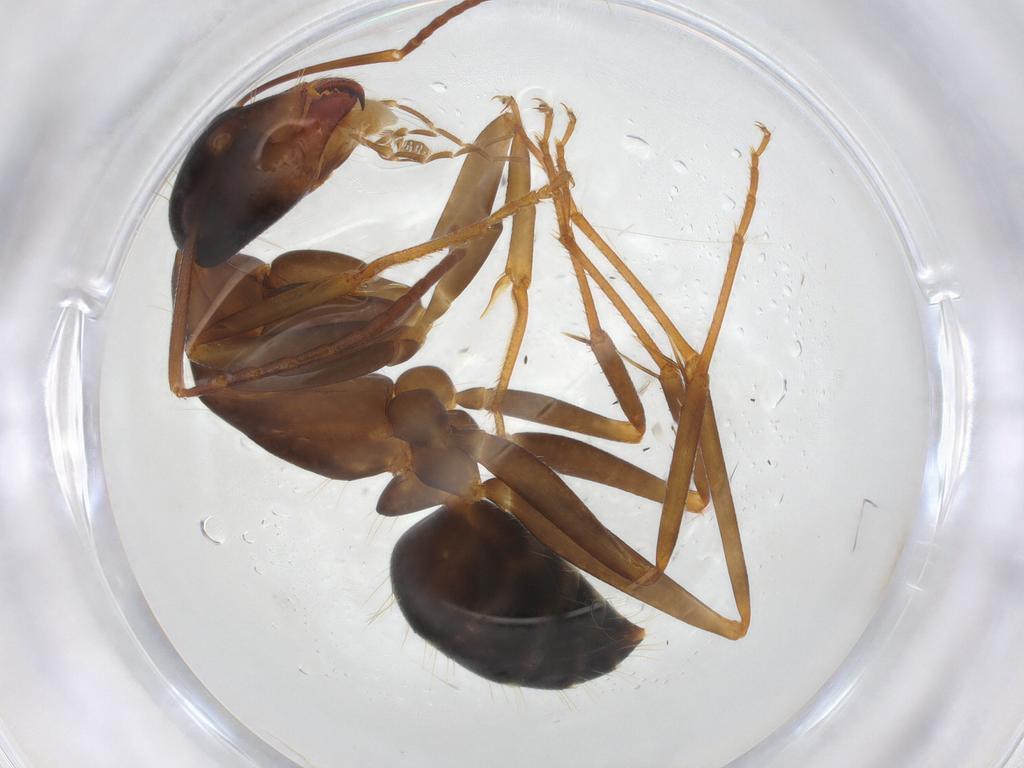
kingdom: Animalia
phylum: Arthropoda
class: Insecta
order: Hymenoptera
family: Formicidae
